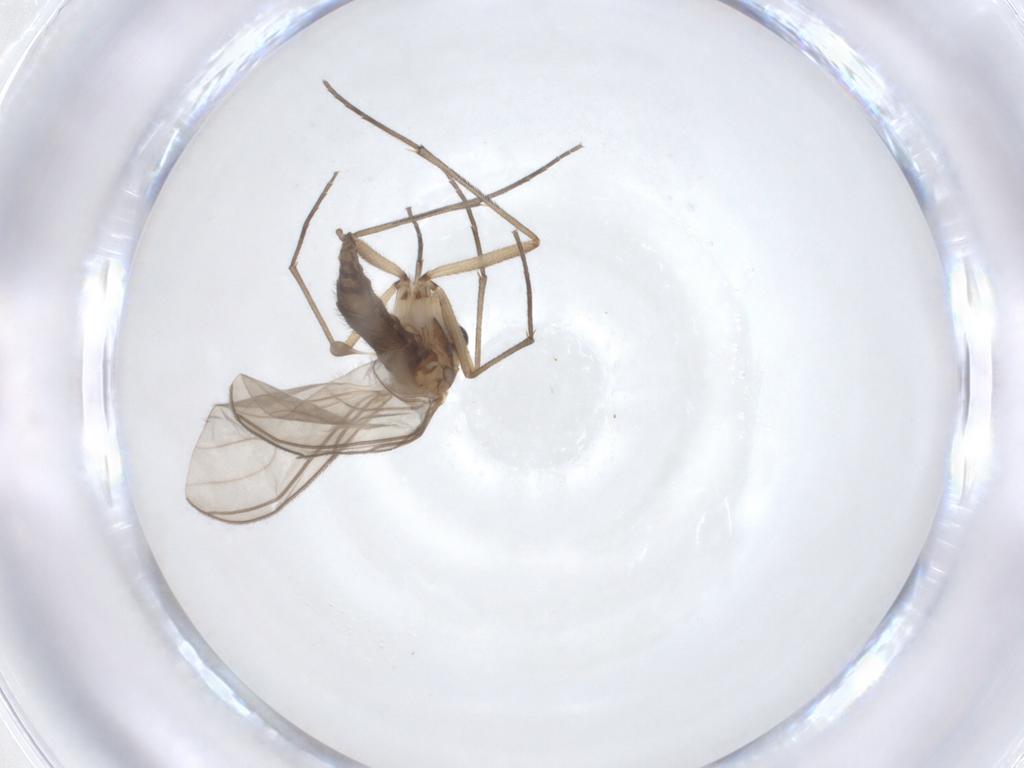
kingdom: Animalia
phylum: Arthropoda
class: Insecta
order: Diptera
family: Sciaridae
